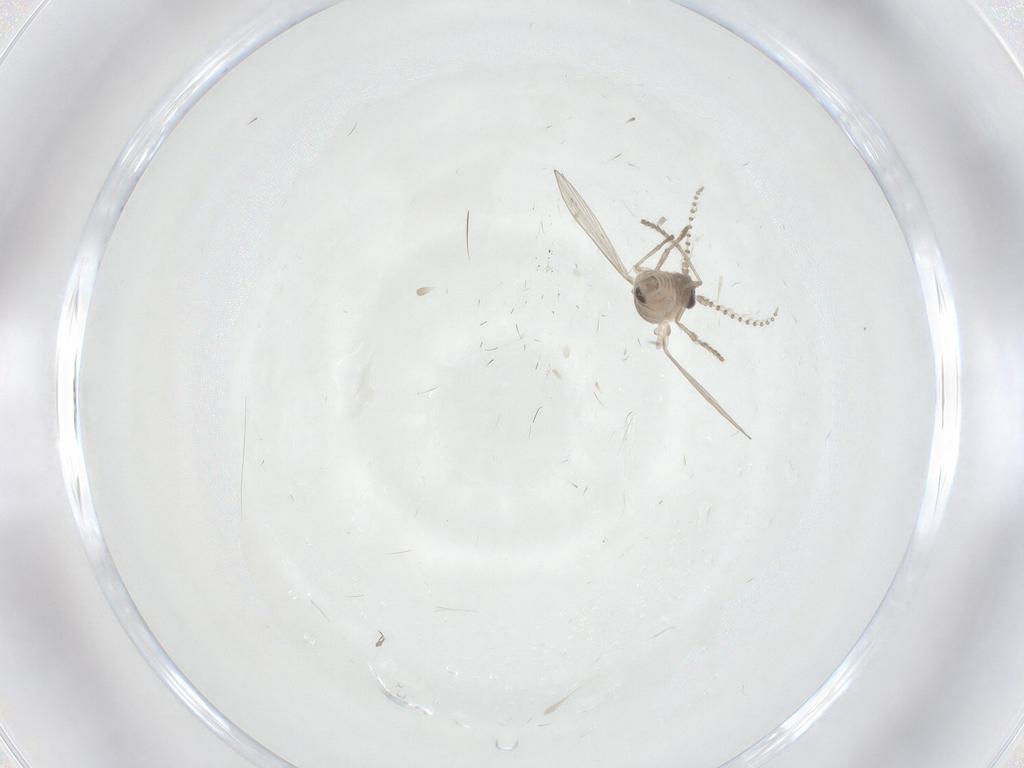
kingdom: Animalia
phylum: Arthropoda
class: Insecta
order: Diptera
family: Psychodidae
